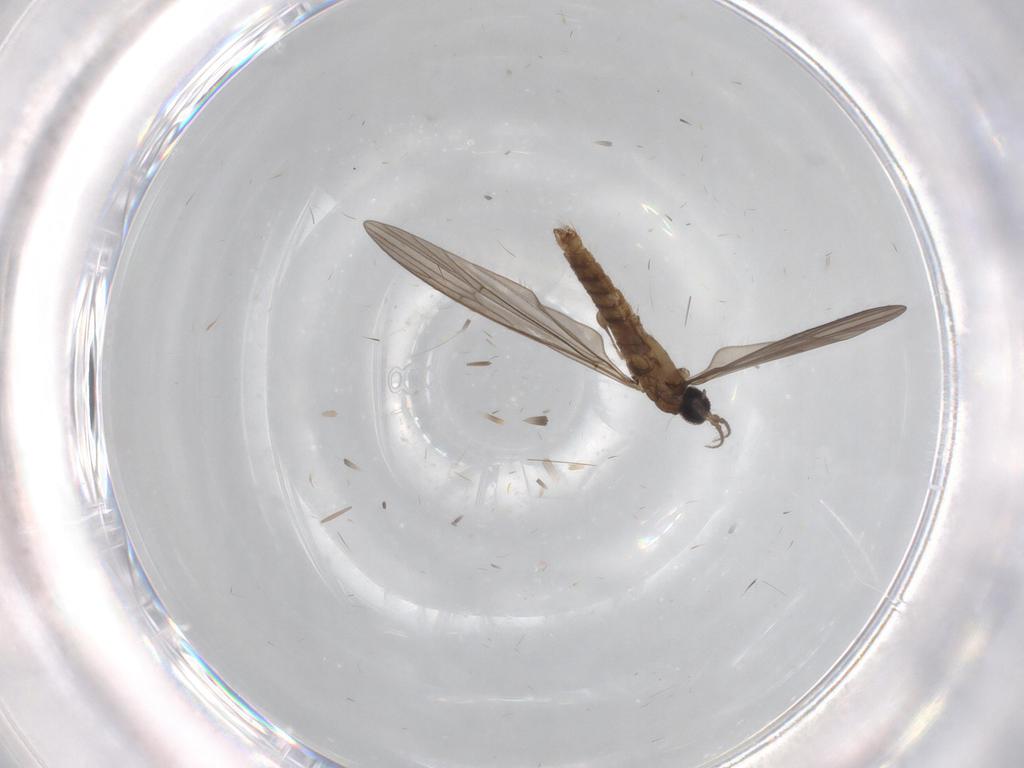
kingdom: Animalia
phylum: Arthropoda
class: Insecta
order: Diptera
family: Limoniidae
